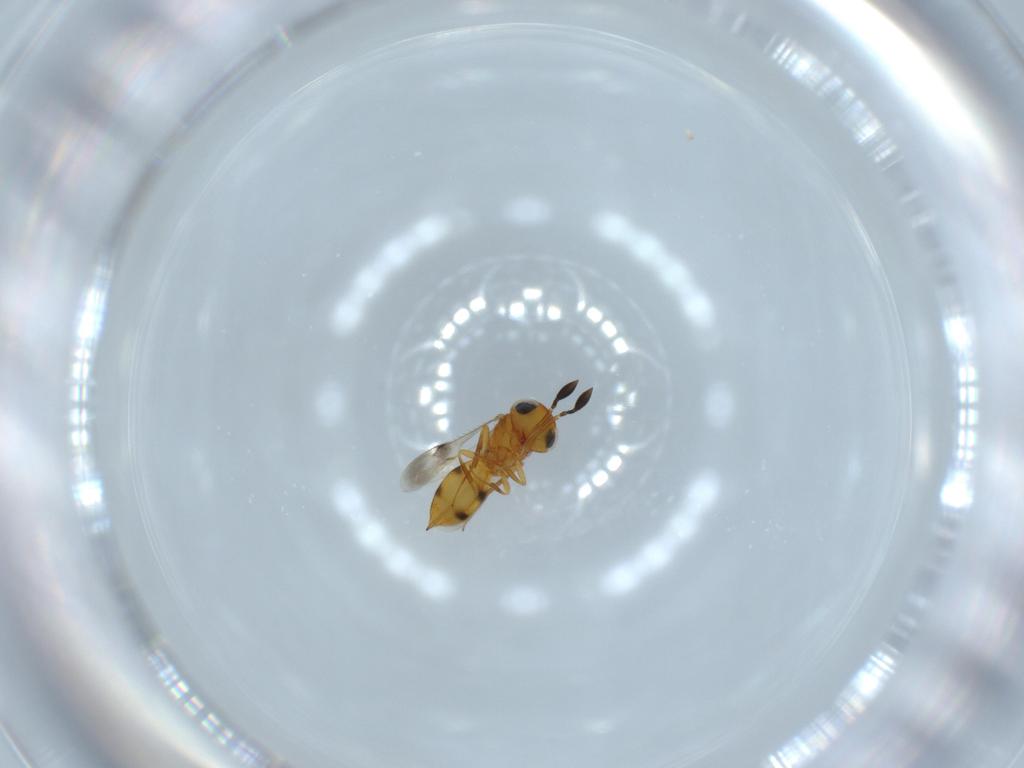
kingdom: Animalia
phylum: Arthropoda
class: Insecta
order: Hymenoptera
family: Scelionidae
